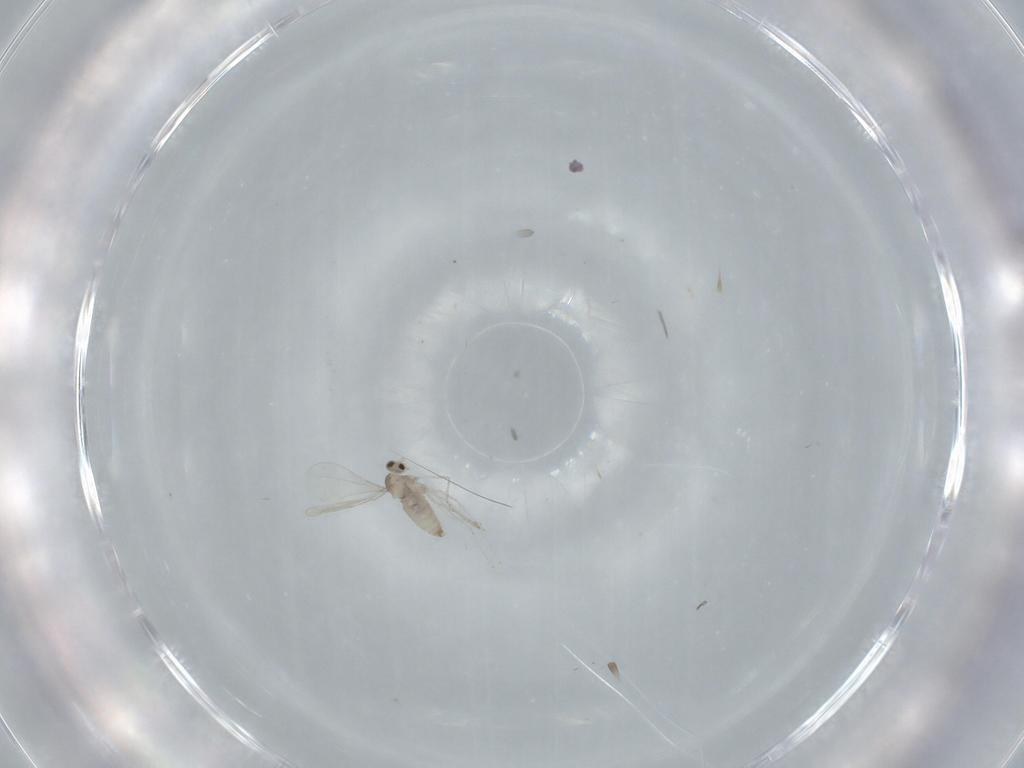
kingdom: Animalia
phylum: Arthropoda
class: Insecta
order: Diptera
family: Cecidomyiidae
